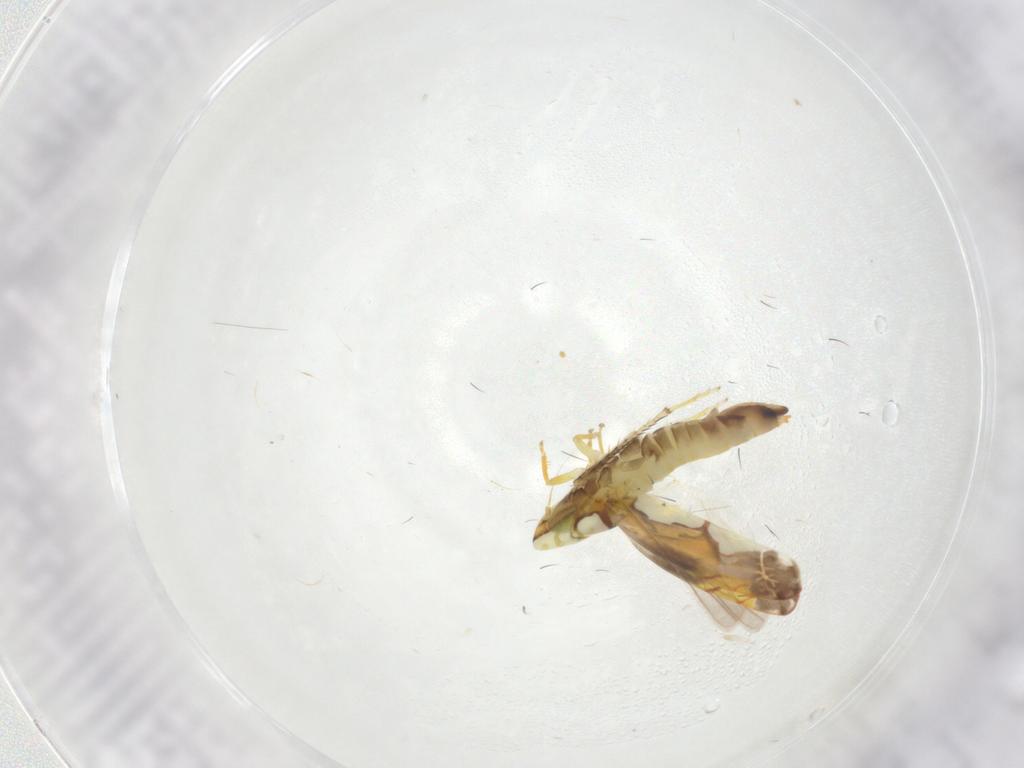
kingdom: Animalia
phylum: Arthropoda
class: Insecta
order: Hemiptera
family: Cicadellidae
